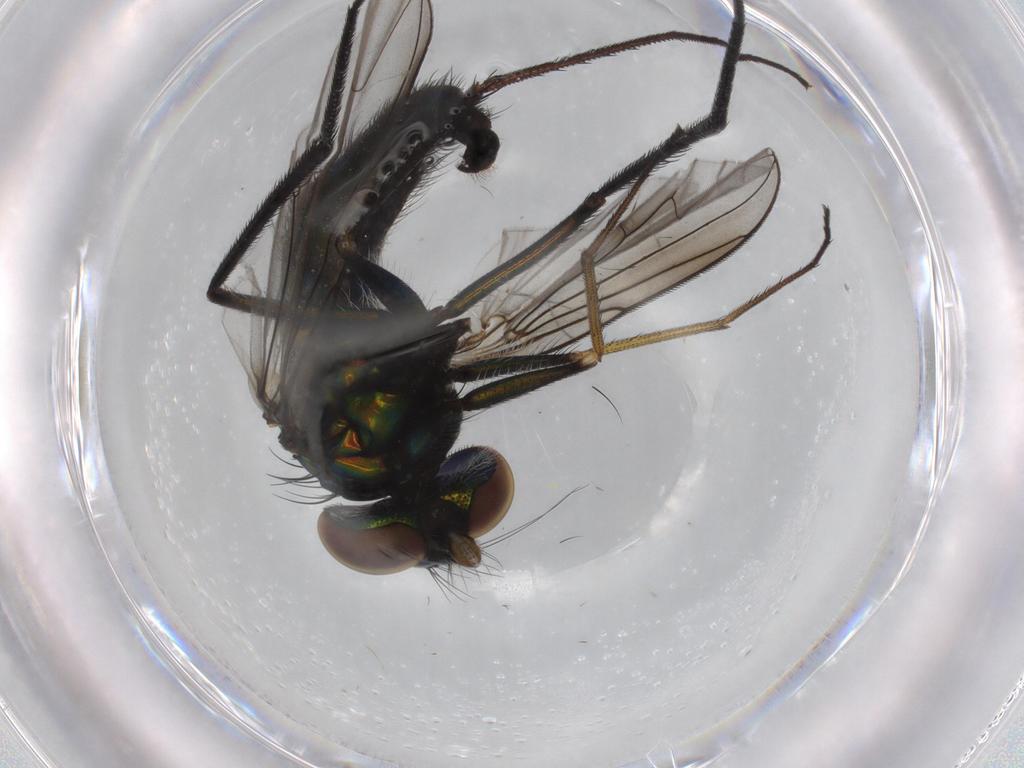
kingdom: Animalia
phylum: Arthropoda
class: Insecta
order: Diptera
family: Dolichopodidae
